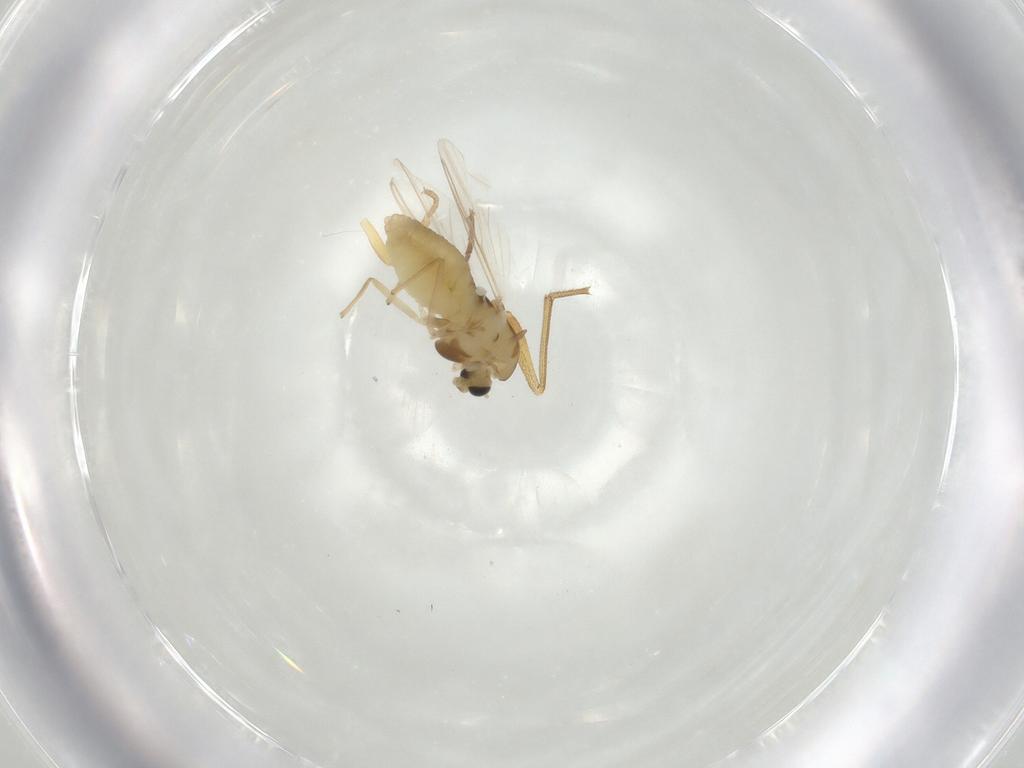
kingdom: Animalia
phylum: Arthropoda
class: Insecta
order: Diptera
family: Chironomidae
